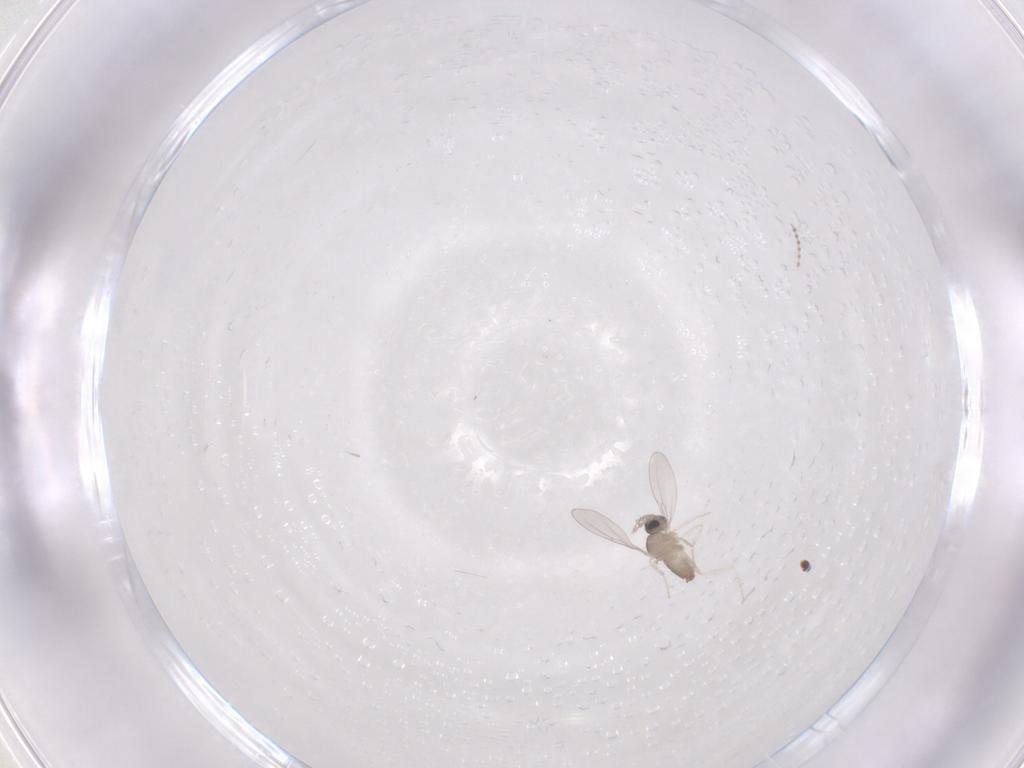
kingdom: Animalia
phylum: Arthropoda
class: Insecta
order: Diptera
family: Cecidomyiidae
